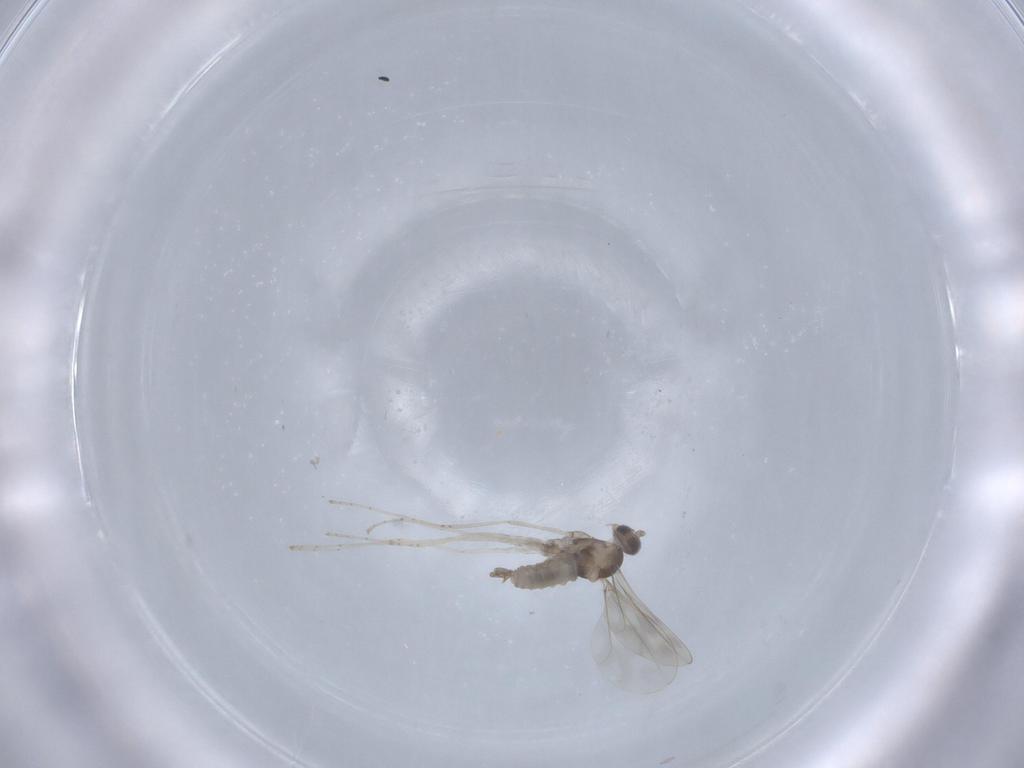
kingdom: Animalia
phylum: Arthropoda
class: Insecta
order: Diptera
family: Cecidomyiidae
